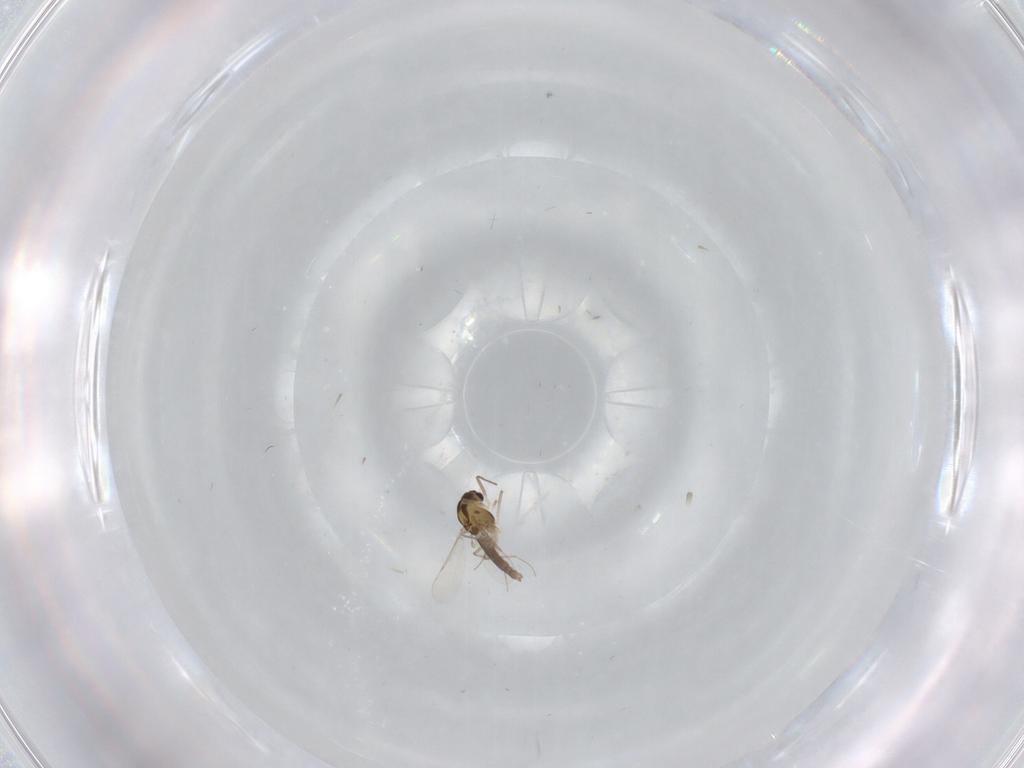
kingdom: Animalia
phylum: Arthropoda
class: Insecta
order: Diptera
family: Chironomidae
